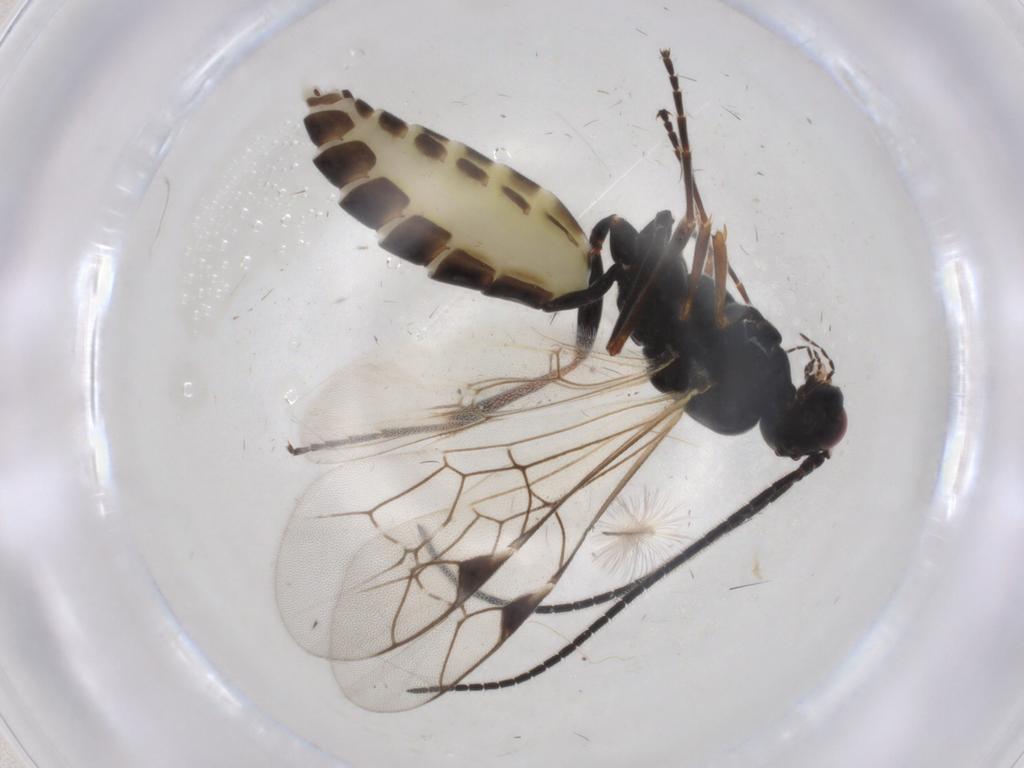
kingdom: Animalia
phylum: Arthropoda
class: Insecta
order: Hymenoptera
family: Ichneumonidae
